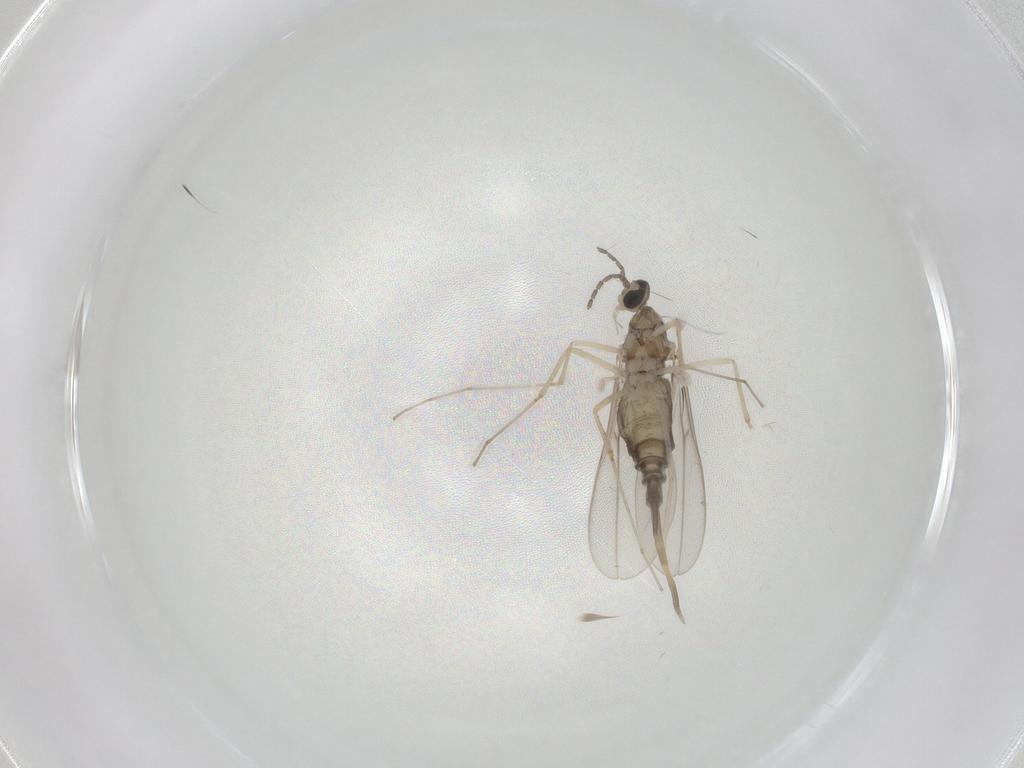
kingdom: Animalia
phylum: Arthropoda
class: Insecta
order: Diptera
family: Cecidomyiidae
